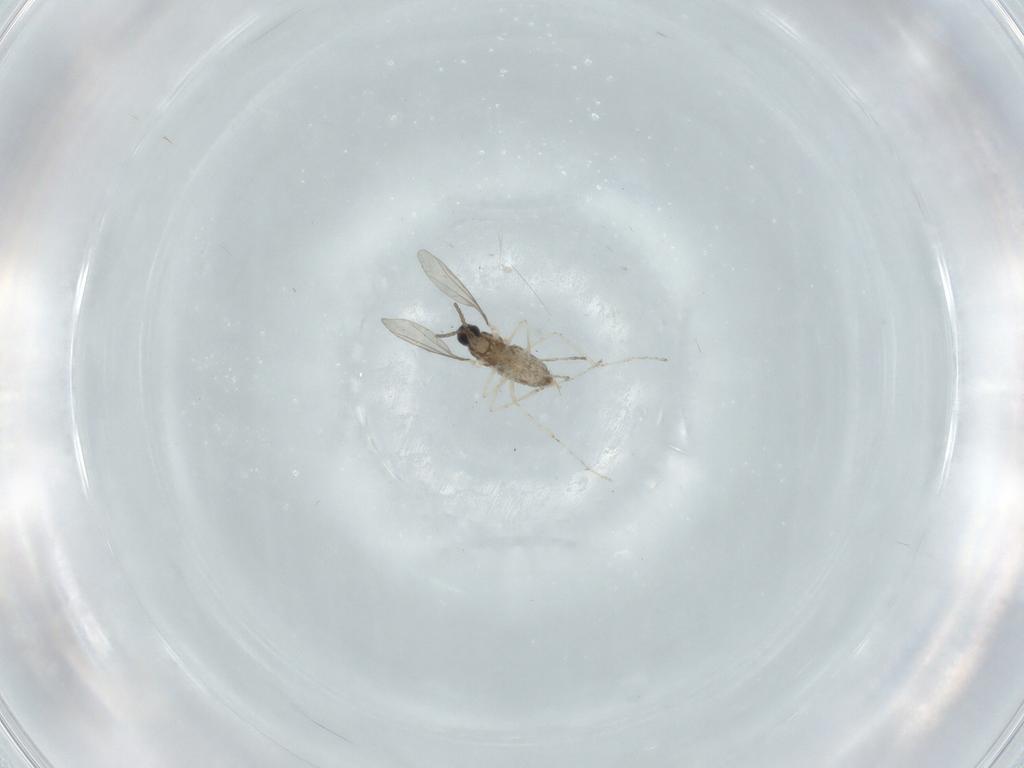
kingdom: Animalia
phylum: Arthropoda
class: Insecta
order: Diptera
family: Cecidomyiidae
